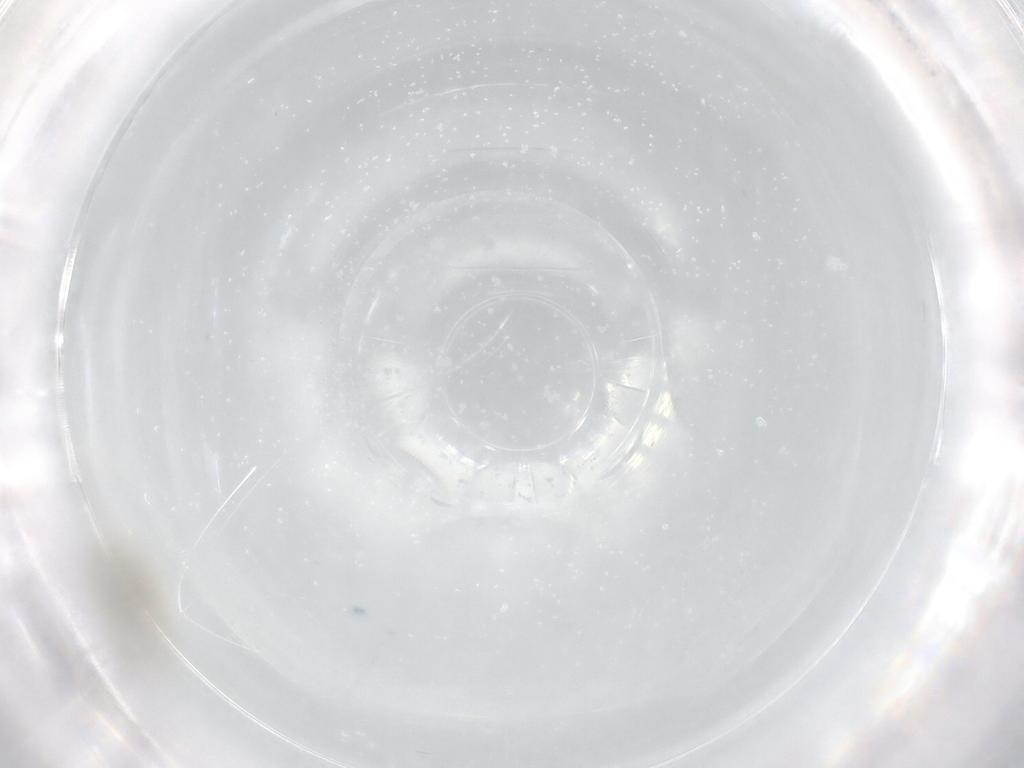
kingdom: Animalia
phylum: Arthropoda
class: Insecta
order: Diptera
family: Chironomidae
